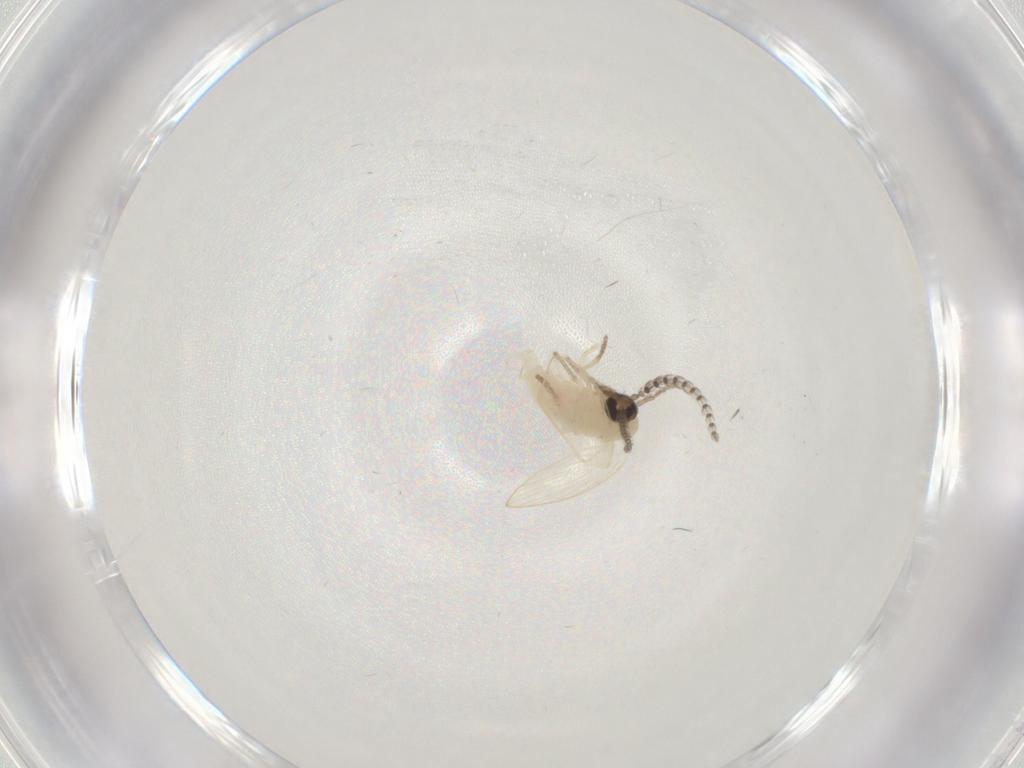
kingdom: Animalia
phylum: Arthropoda
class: Insecta
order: Diptera
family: Psychodidae
